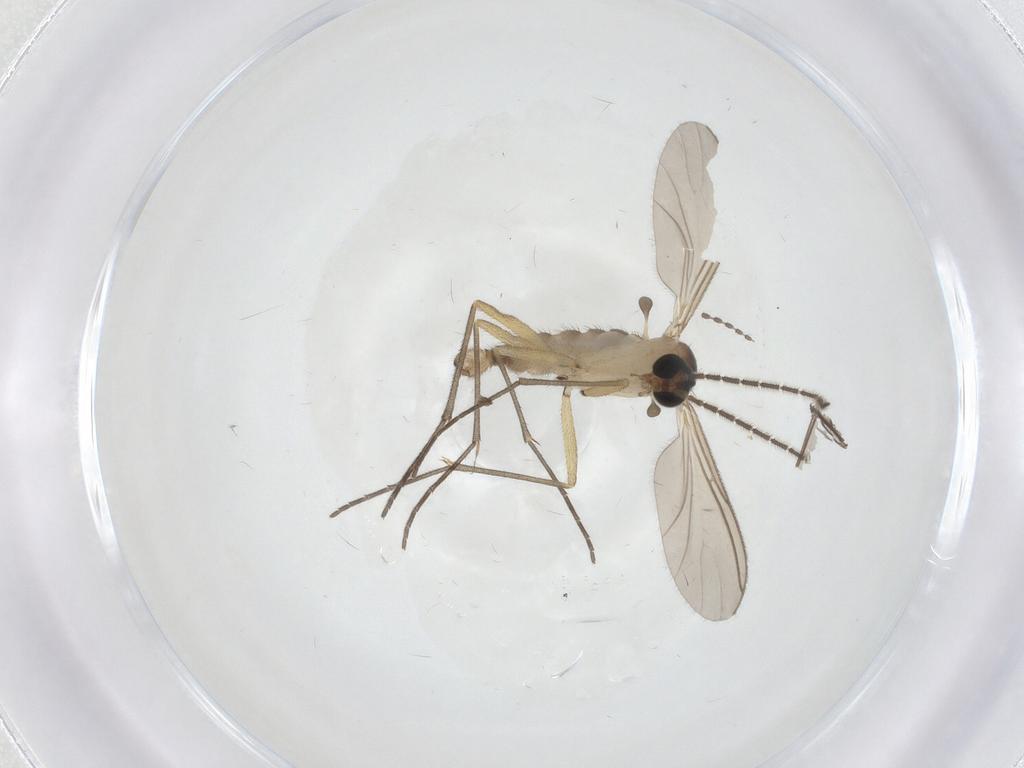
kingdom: Animalia
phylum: Arthropoda
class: Insecta
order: Diptera
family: Sciaridae
